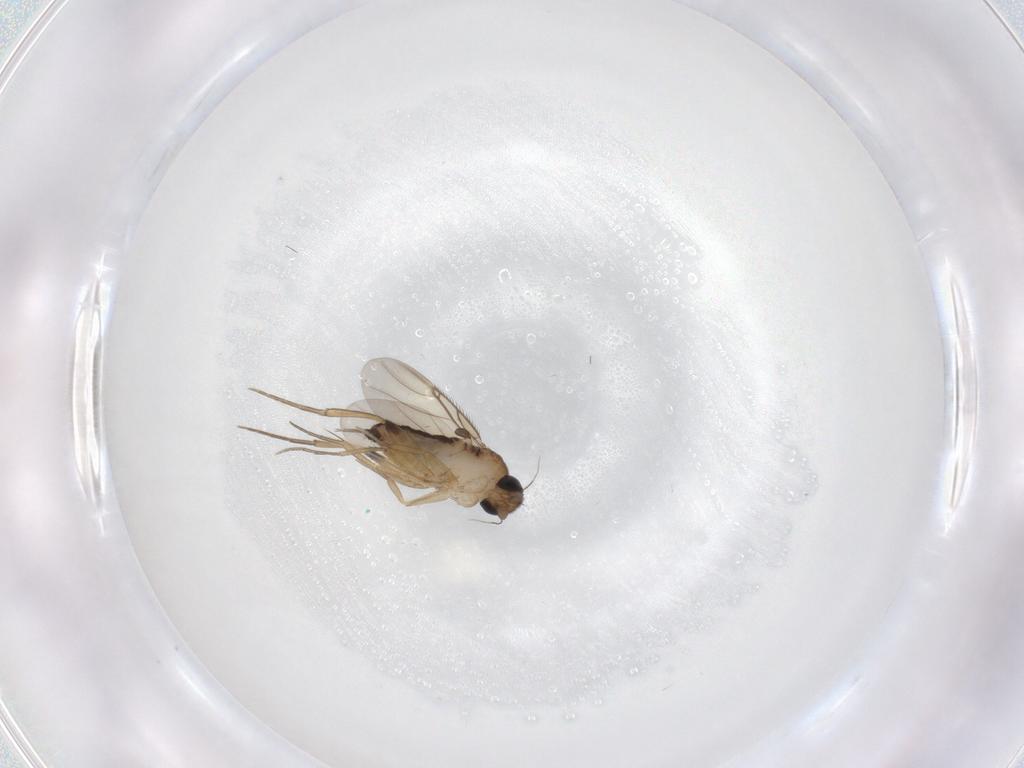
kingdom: Animalia
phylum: Arthropoda
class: Insecta
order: Diptera
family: Phoridae
